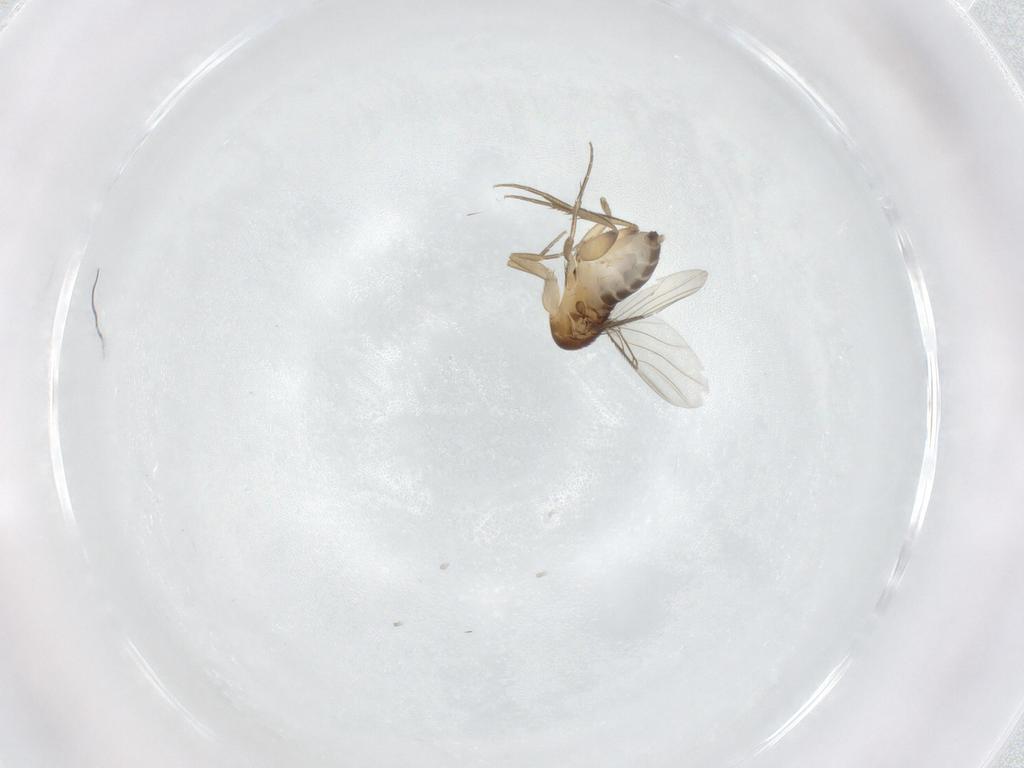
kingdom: Animalia
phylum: Arthropoda
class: Insecta
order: Diptera
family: Phoridae
